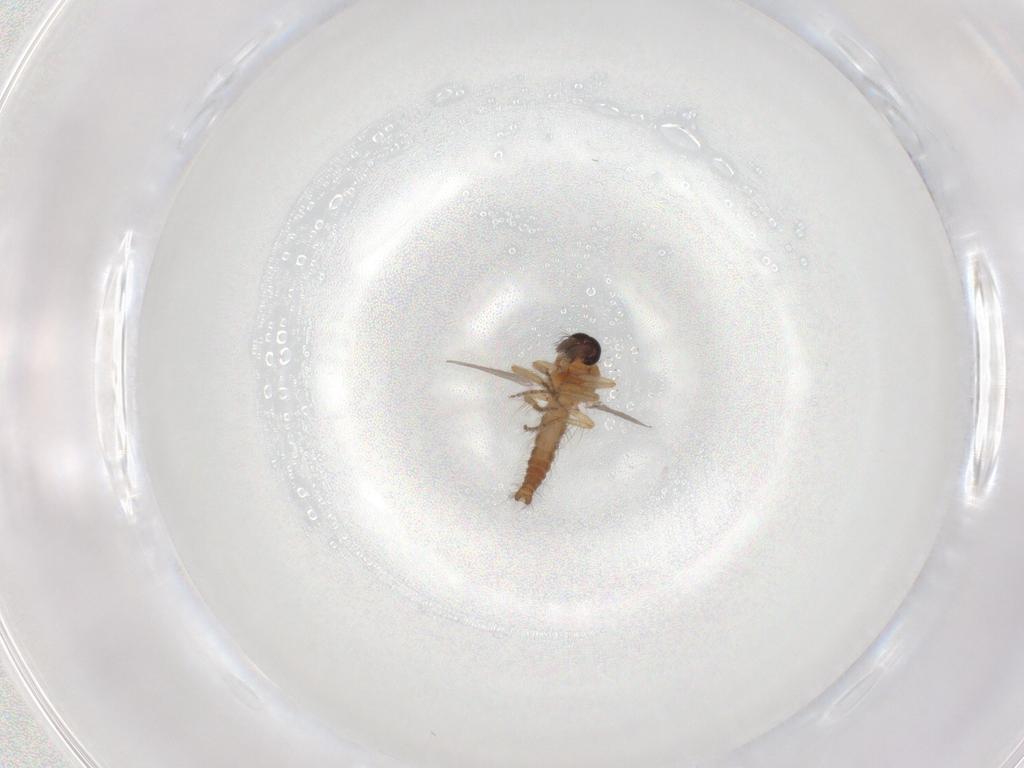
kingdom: Animalia
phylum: Arthropoda
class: Insecta
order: Diptera
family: Ceratopogonidae
